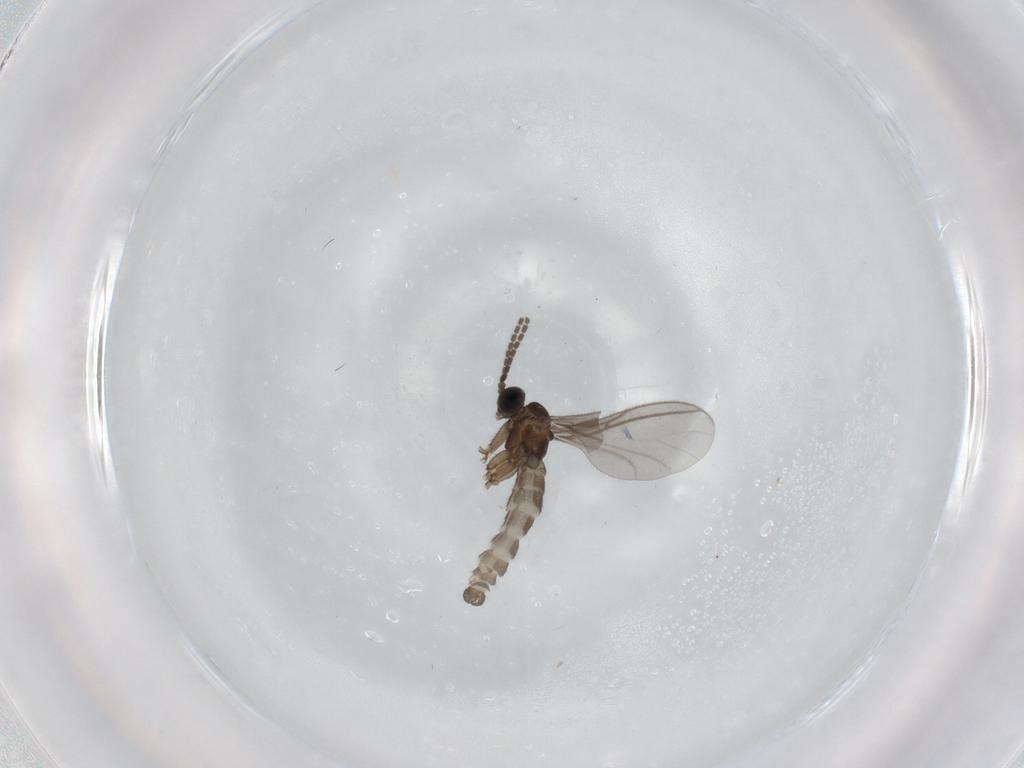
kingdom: Animalia
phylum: Arthropoda
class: Insecta
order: Diptera
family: Sciaridae
